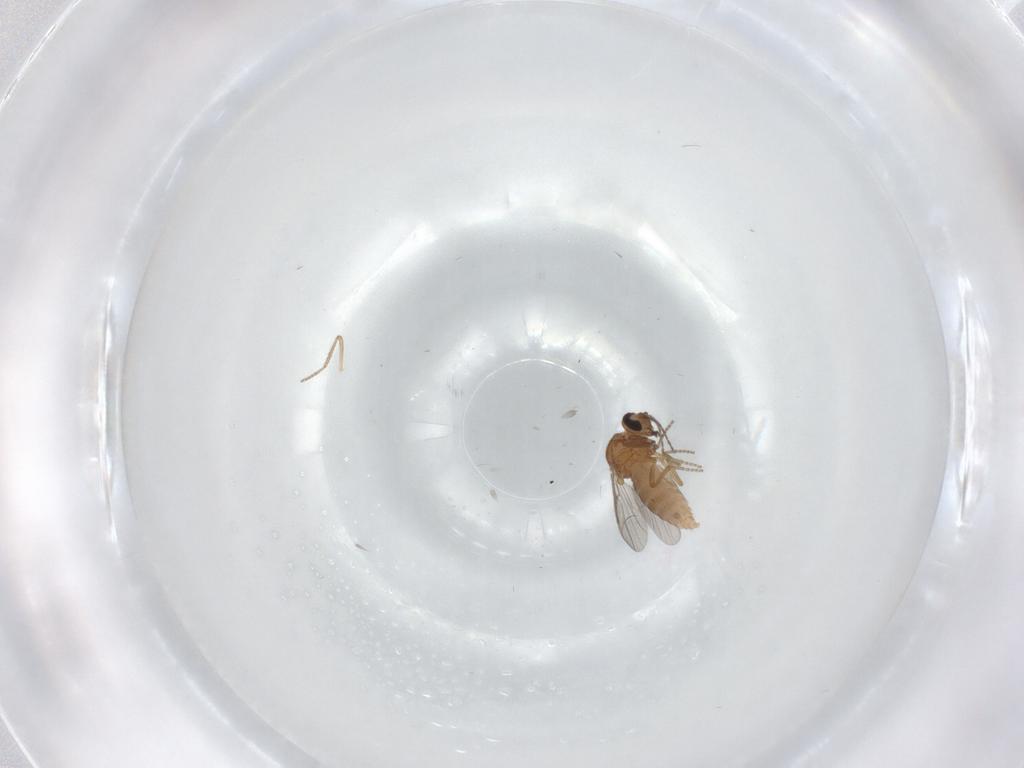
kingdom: Animalia
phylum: Arthropoda
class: Insecta
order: Diptera
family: Ceratopogonidae
